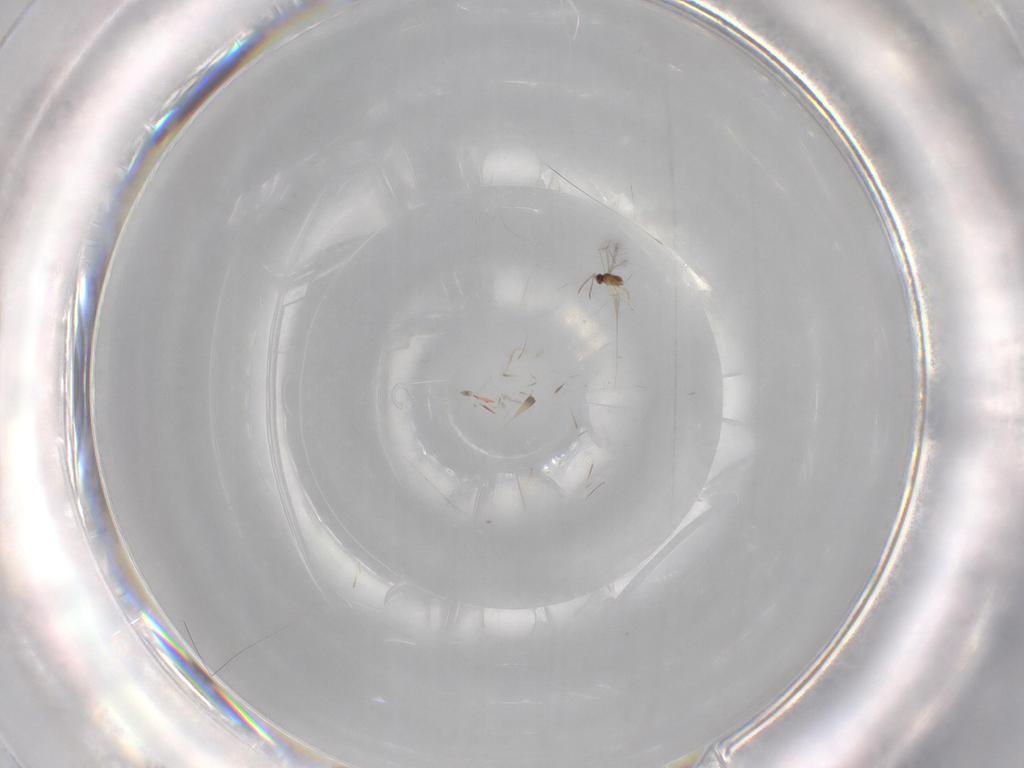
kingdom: Animalia
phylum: Arthropoda
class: Insecta
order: Hymenoptera
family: Mymaridae
